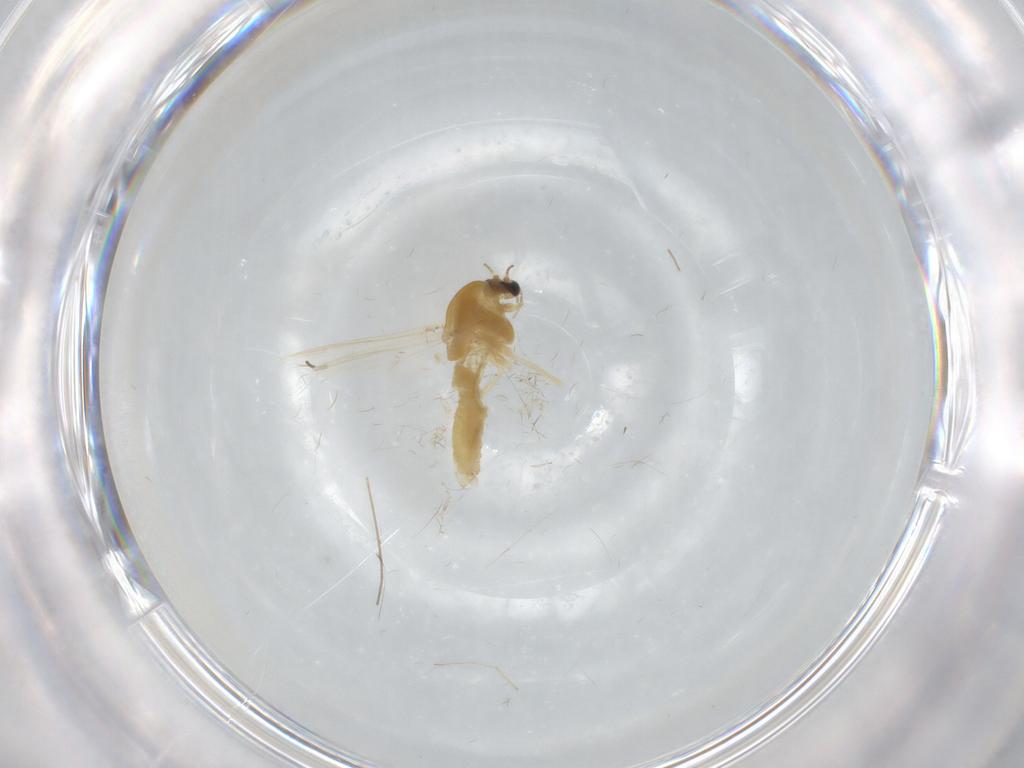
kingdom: Animalia
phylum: Arthropoda
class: Insecta
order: Diptera
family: Chironomidae
